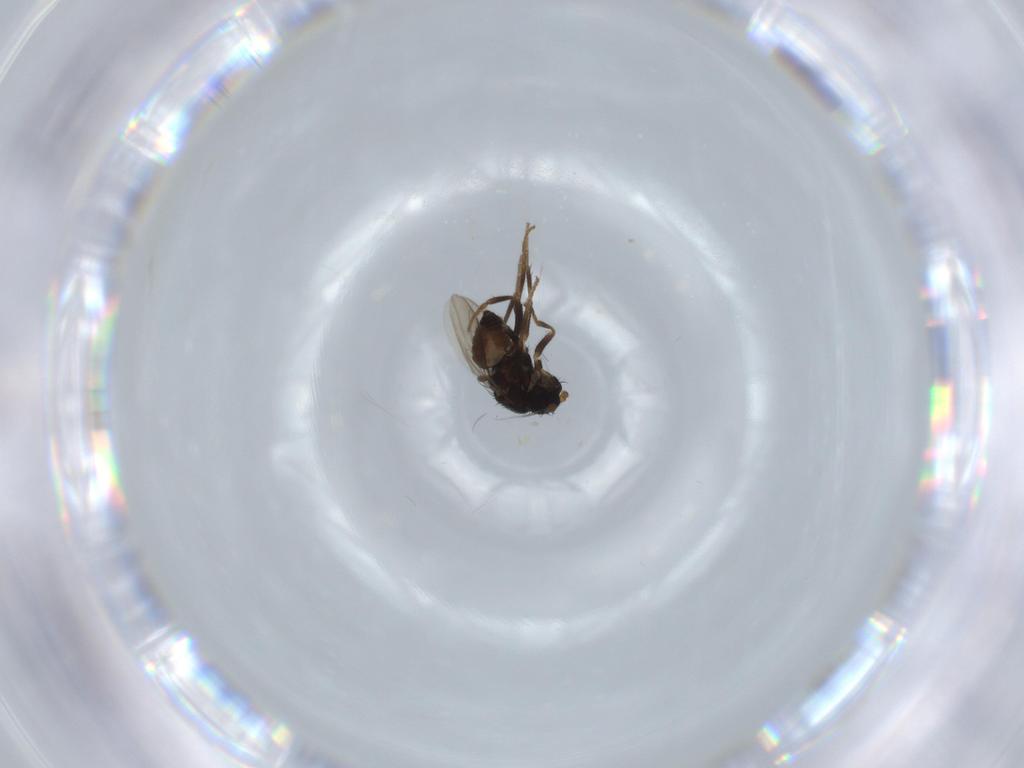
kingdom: Animalia
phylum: Arthropoda
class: Insecta
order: Diptera
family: Sphaeroceridae
